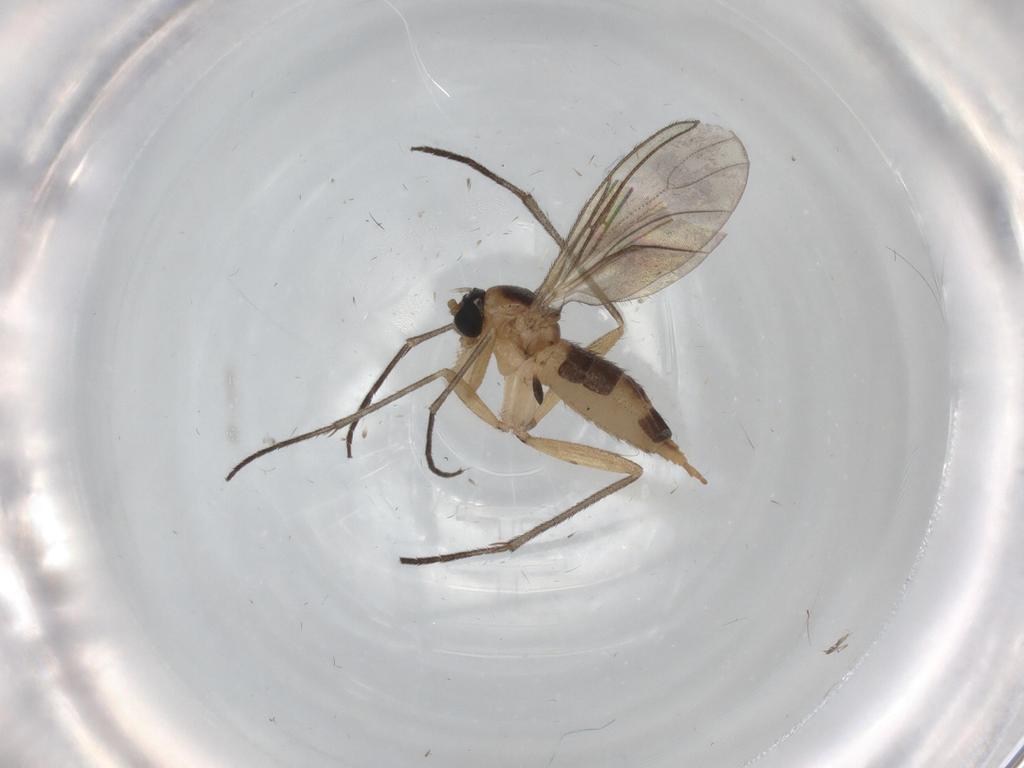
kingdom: Animalia
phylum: Arthropoda
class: Insecta
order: Diptera
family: Sciaridae
